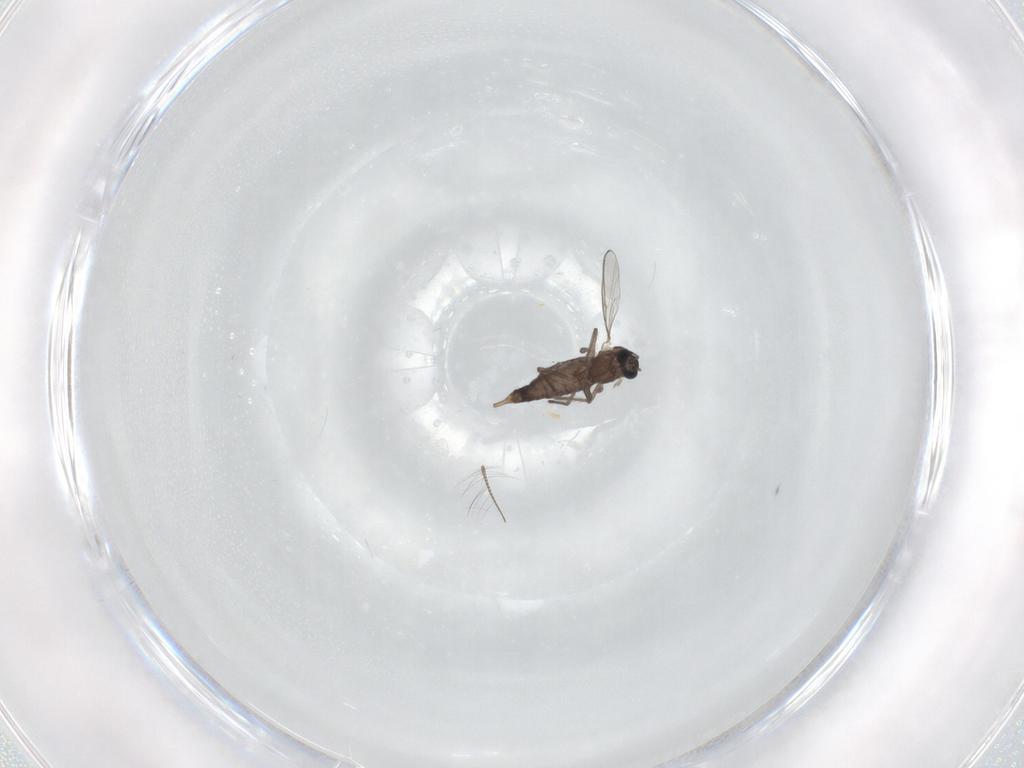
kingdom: Animalia
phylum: Arthropoda
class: Insecta
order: Diptera
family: Chironomidae
